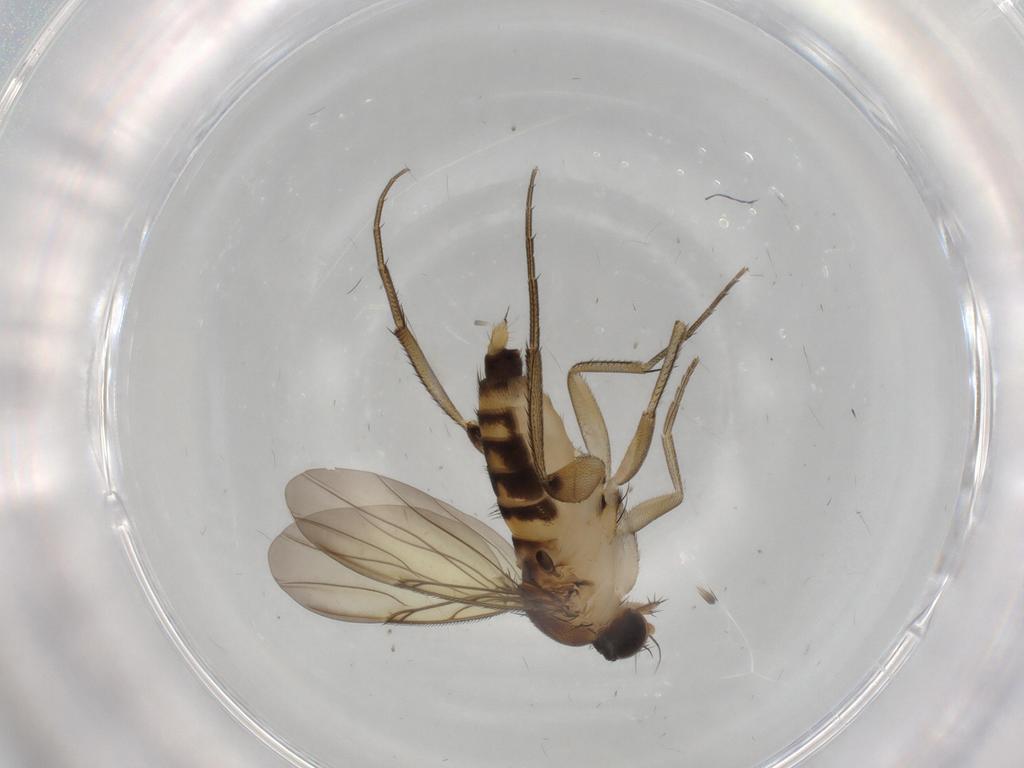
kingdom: Animalia
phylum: Arthropoda
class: Insecta
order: Diptera
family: Phoridae
